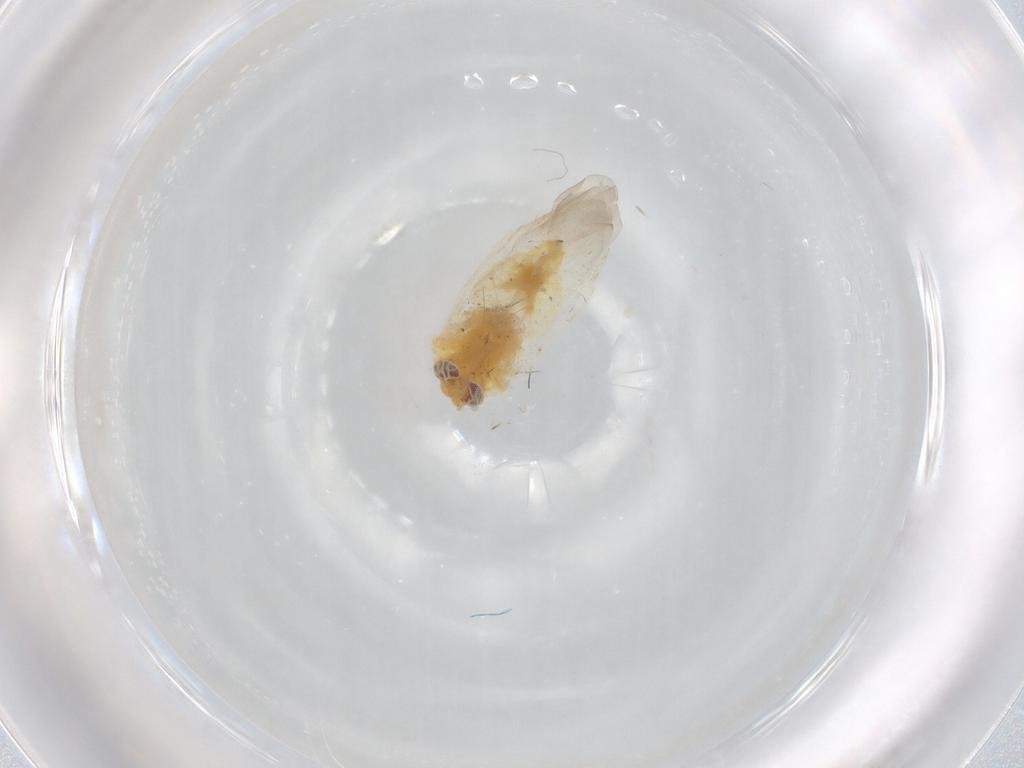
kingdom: Animalia
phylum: Arthropoda
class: Insecta
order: Hemiptera
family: Miridae
